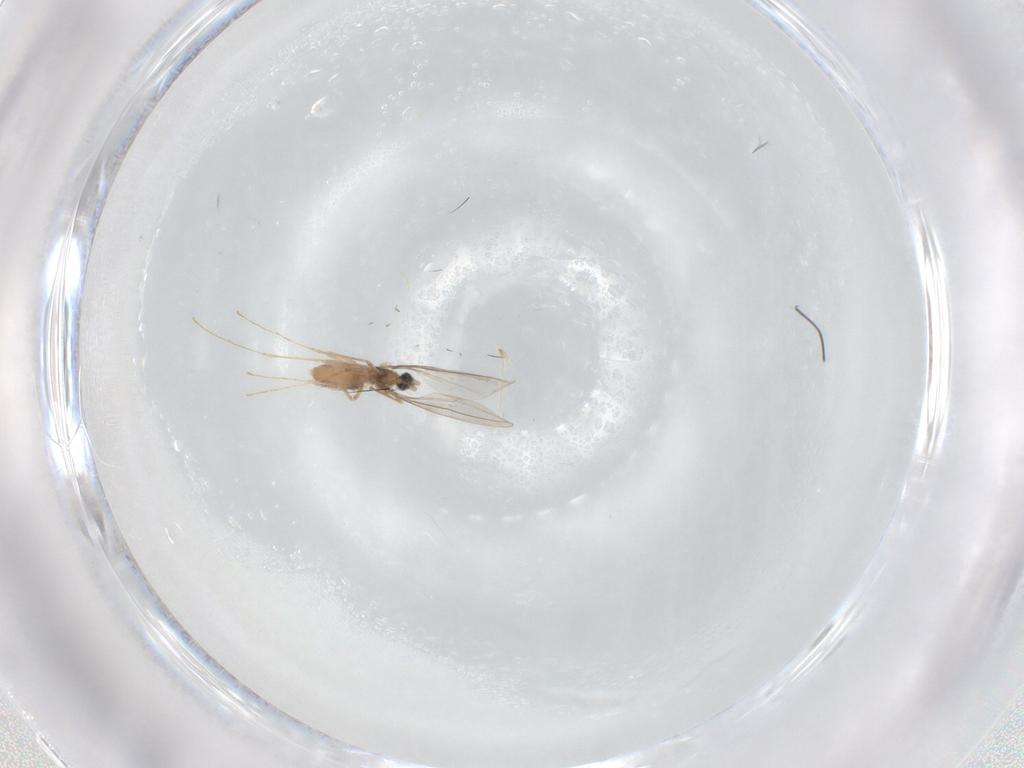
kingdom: Animalia
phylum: Arthropoda
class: Insecta
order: Diptera
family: Cecidomyiidae
